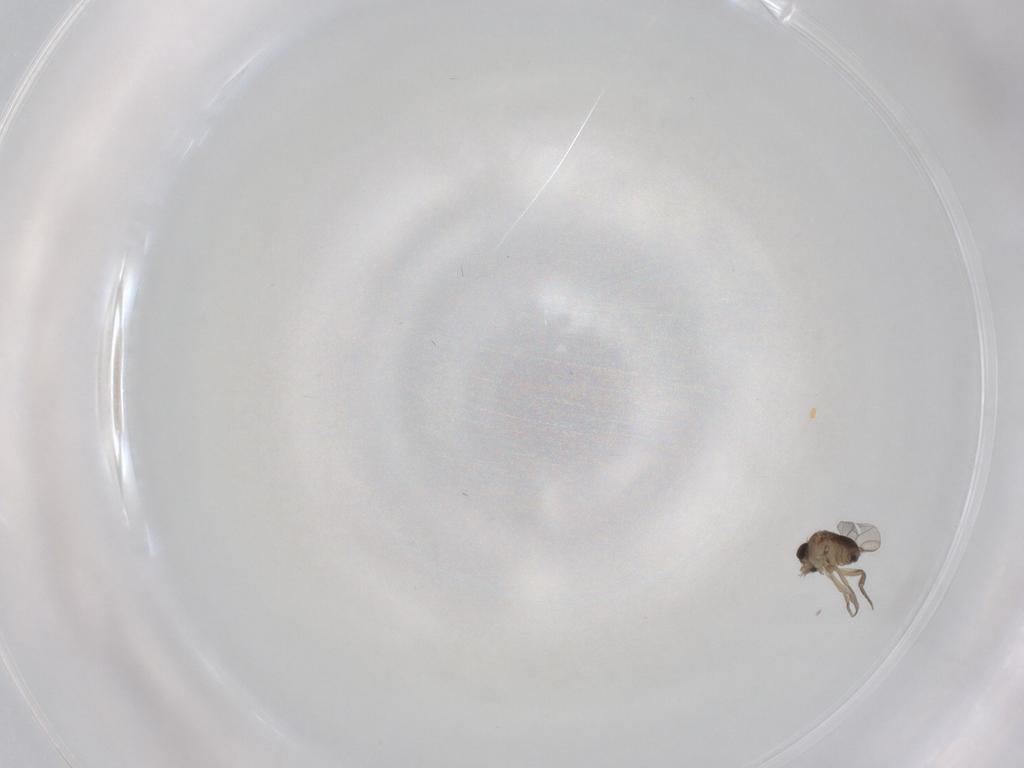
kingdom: Animalia
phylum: Arthropoda
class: Insecta
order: Diptera
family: Phoridae
